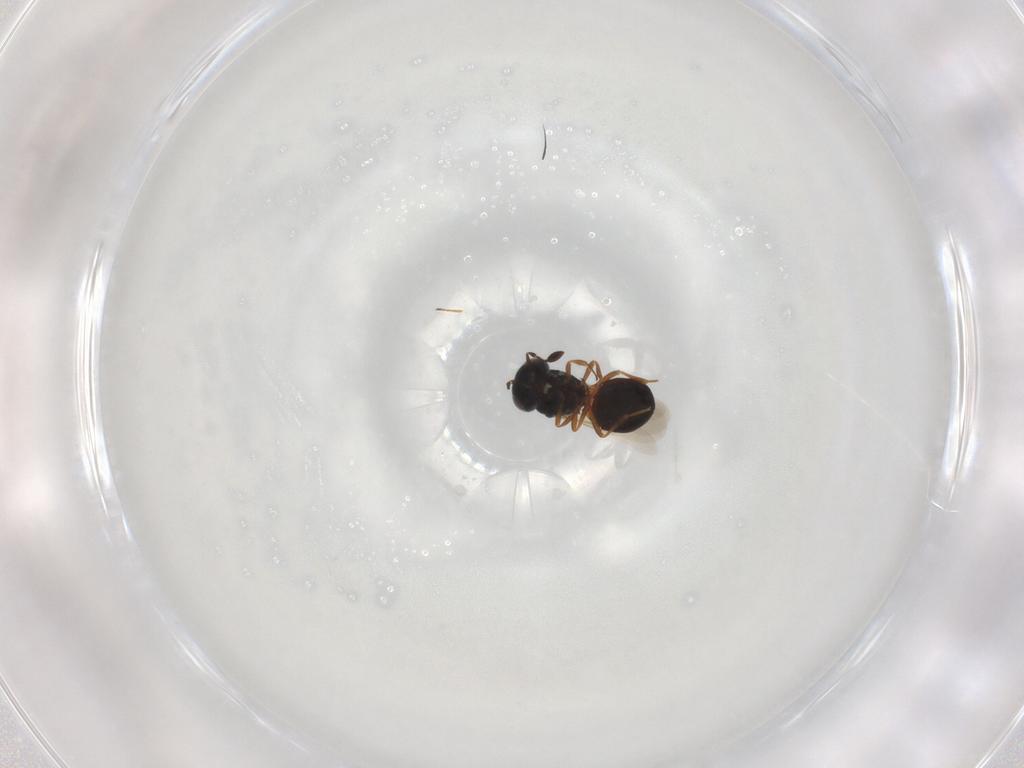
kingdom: Animalia
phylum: Arthropoda
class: Insecta
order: Hymenoptera
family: Scelionidae
